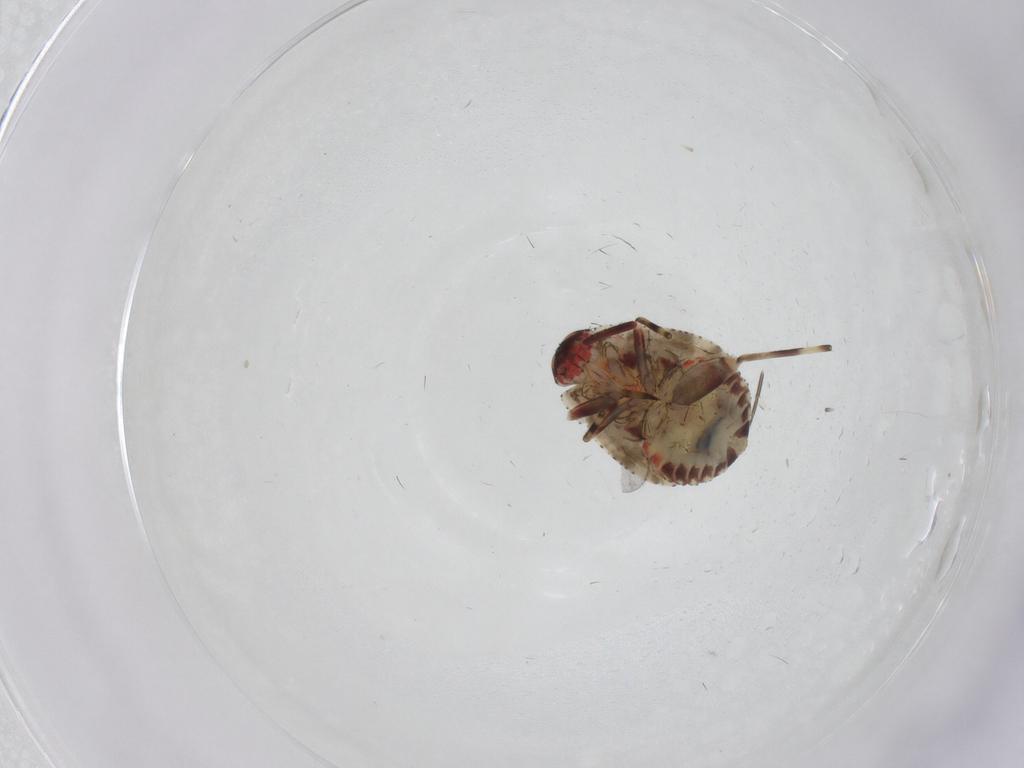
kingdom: Animalia
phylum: Arthropoda
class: Insecta
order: Hemiptera
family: Miridae
